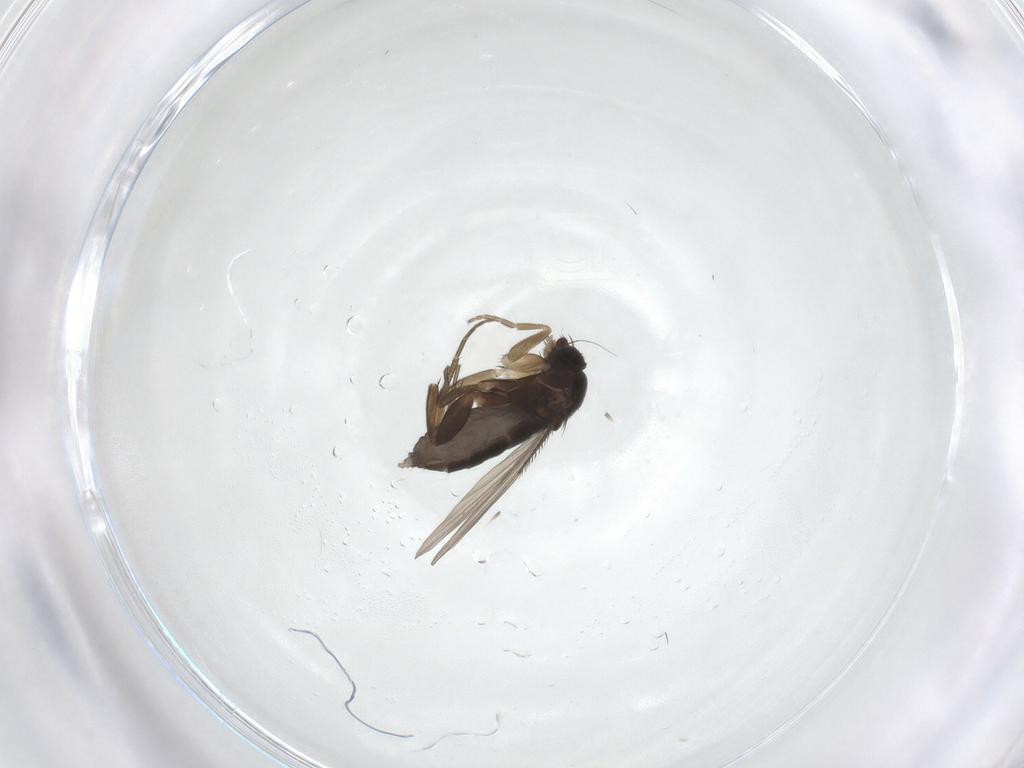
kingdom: Animalia
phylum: Arthropoda
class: Insecta
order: Diptera
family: Phoridae
